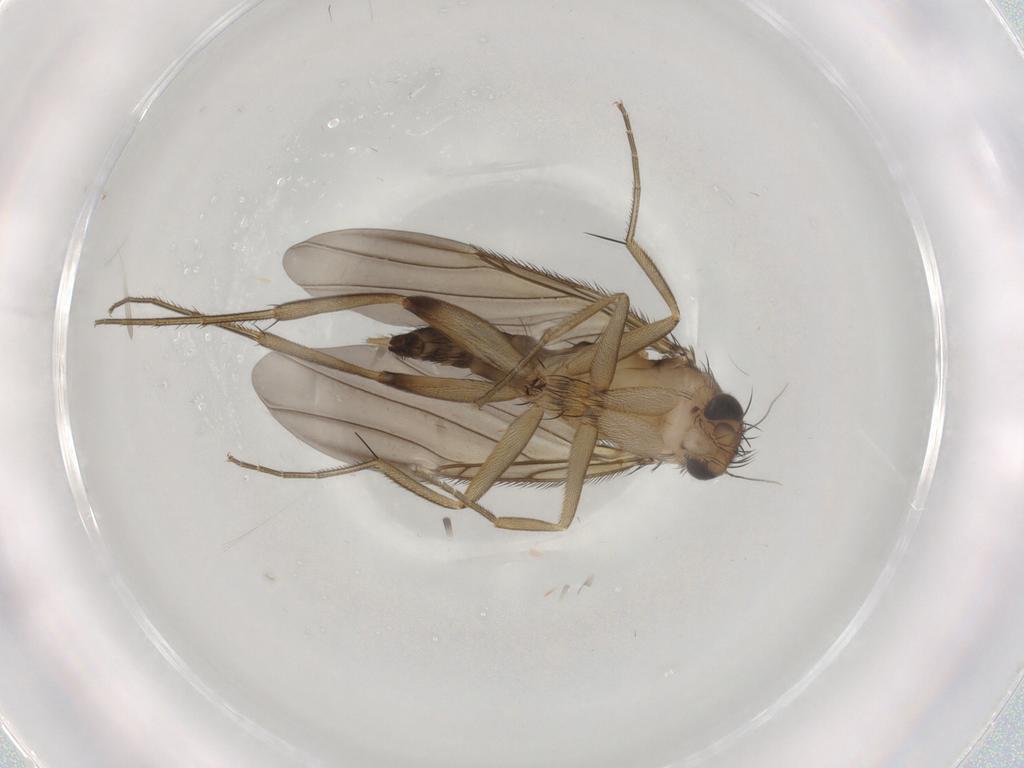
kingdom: Animalia
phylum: Arthropoda
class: Insecta
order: Diptera
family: Phoridae
